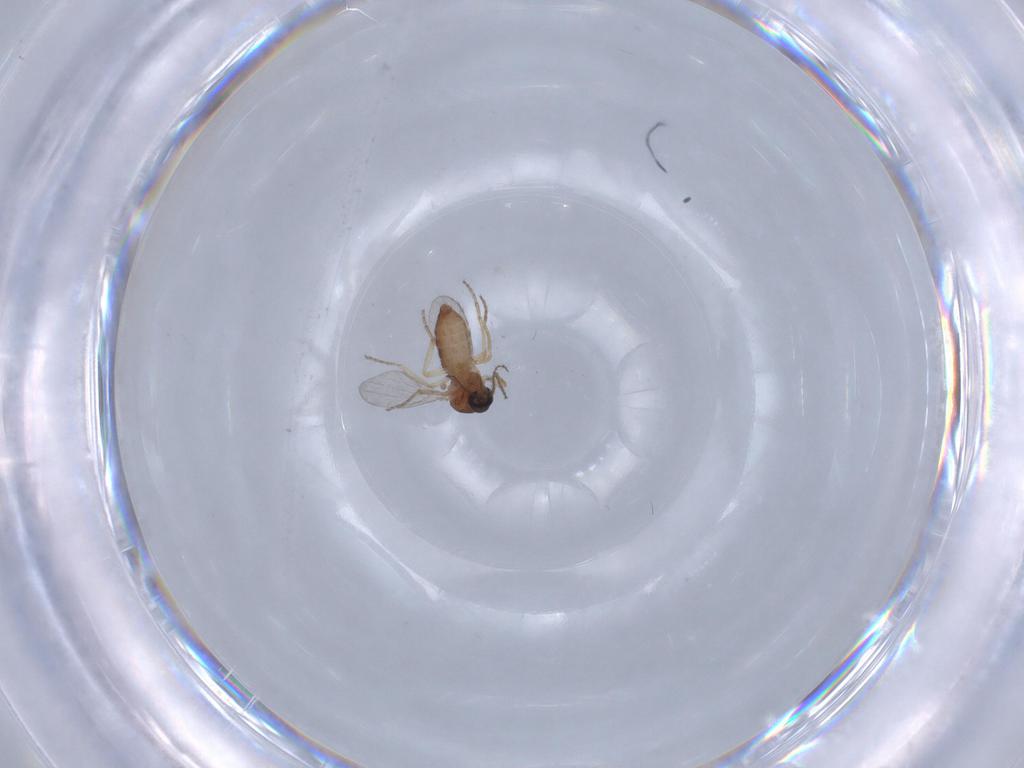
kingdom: Animalia
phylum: Arthropoda
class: Insecta
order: Diptera
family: Ceratopogonidae
